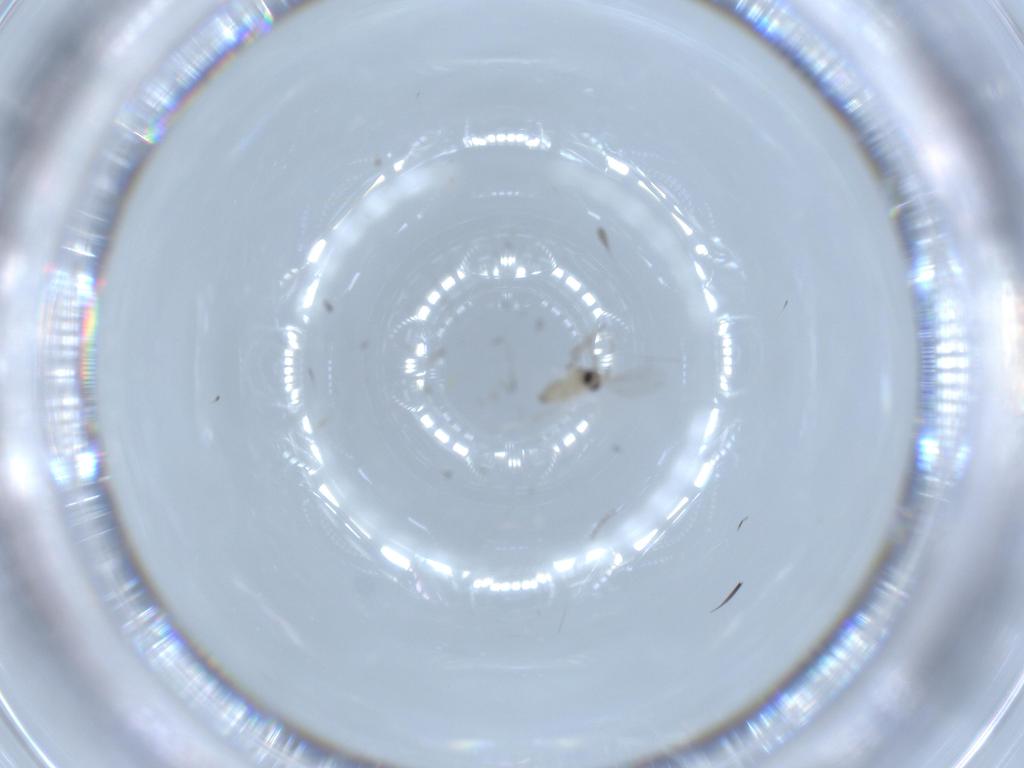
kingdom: Animalia
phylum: Arthropoda
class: Insecta
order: Diptera
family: Cecidomyiidae
